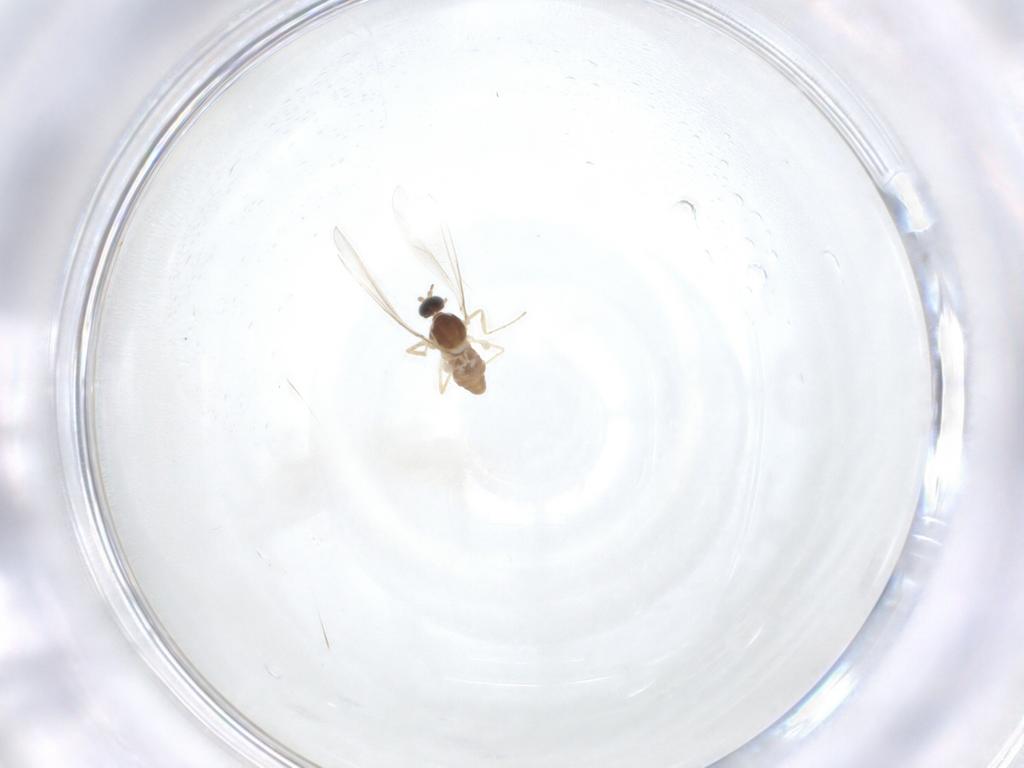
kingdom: Animalia
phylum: Arthropoda
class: Insecta
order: Diptera
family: Cecidomyiidae
